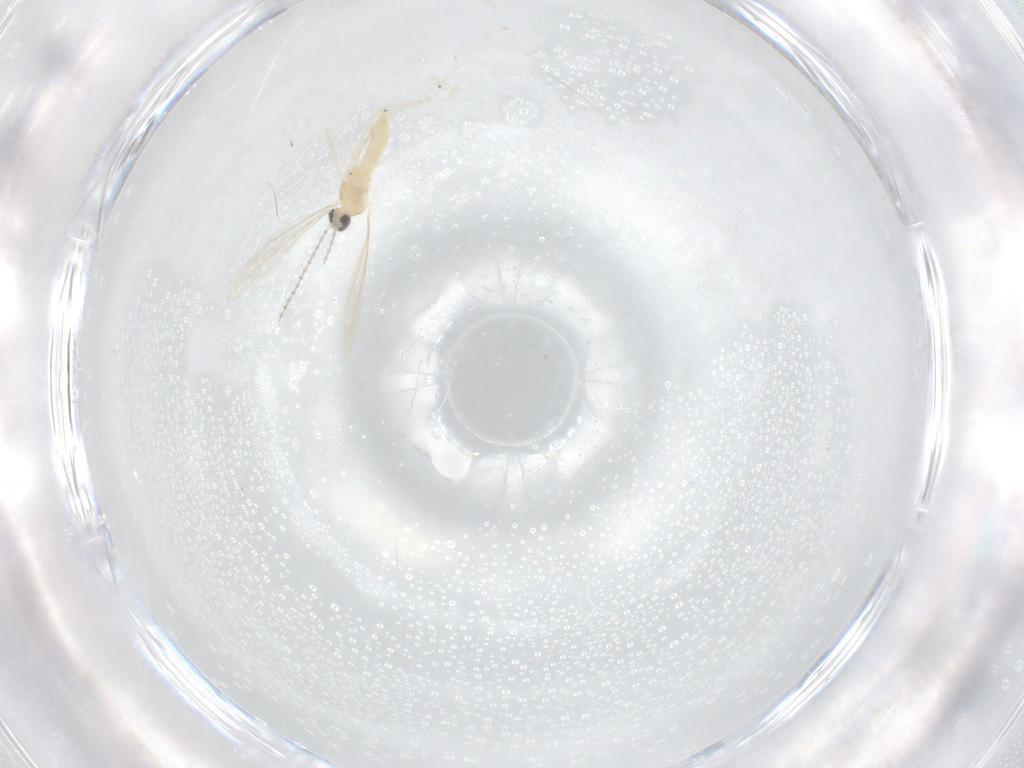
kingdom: Animalia
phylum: Arthropoda
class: Insecta
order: Diptera
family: Cecidomyiidae
